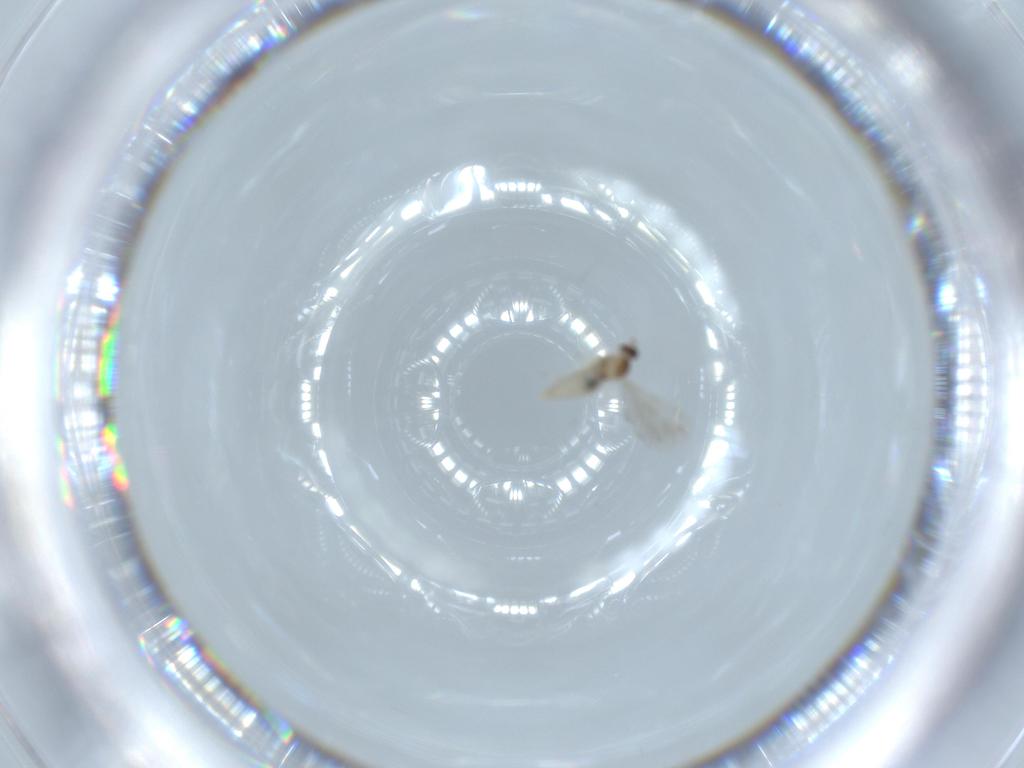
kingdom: Animalia
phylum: Arthropoda
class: Insecta
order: Diptera
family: Cecidomyiidae
